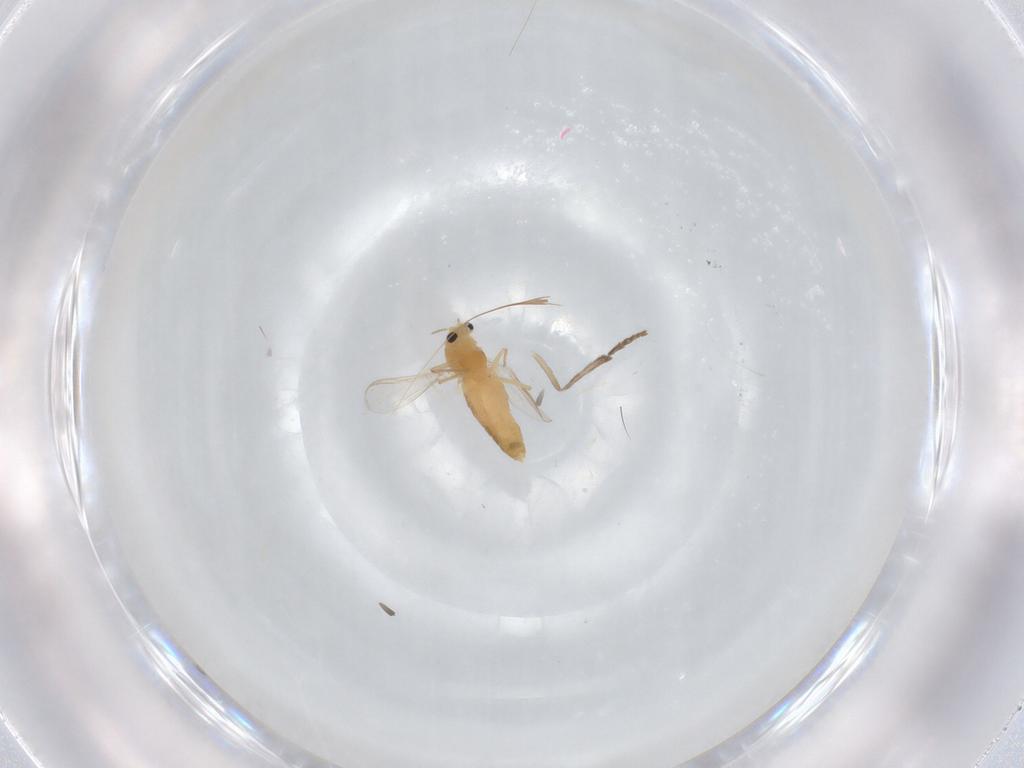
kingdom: Animalia
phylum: Arthropoda
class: Insecta
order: Diptera
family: Chironomidae
